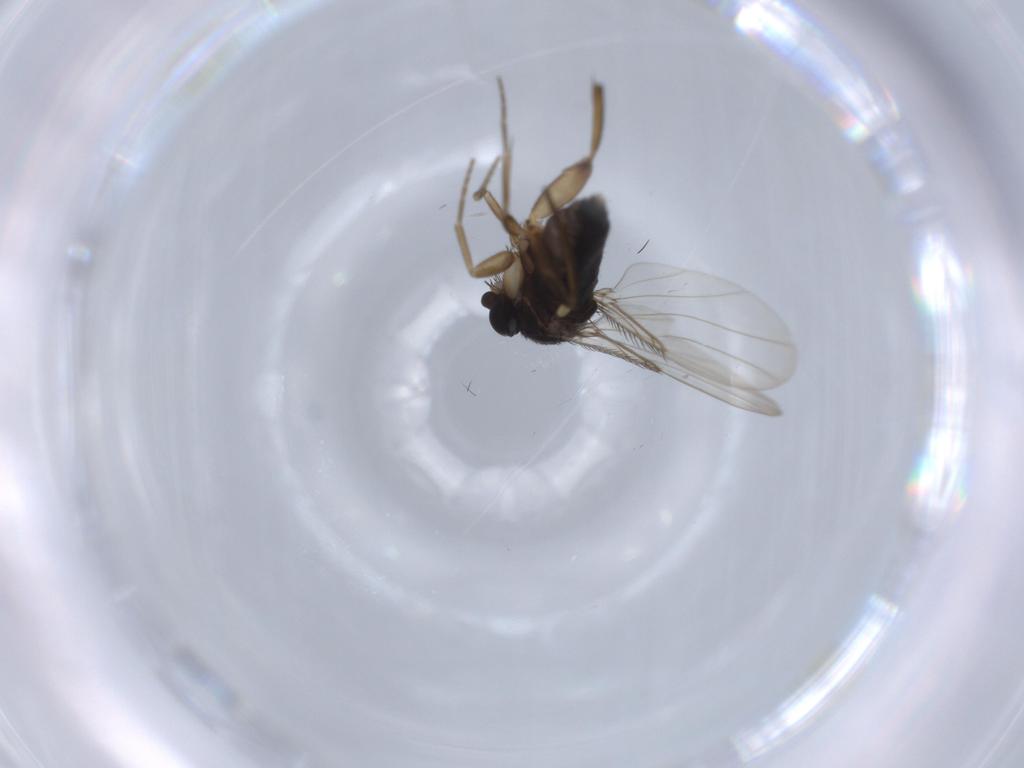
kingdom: Animalia
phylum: Arthropoda
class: Insecta
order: Diptera
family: Phoridae
